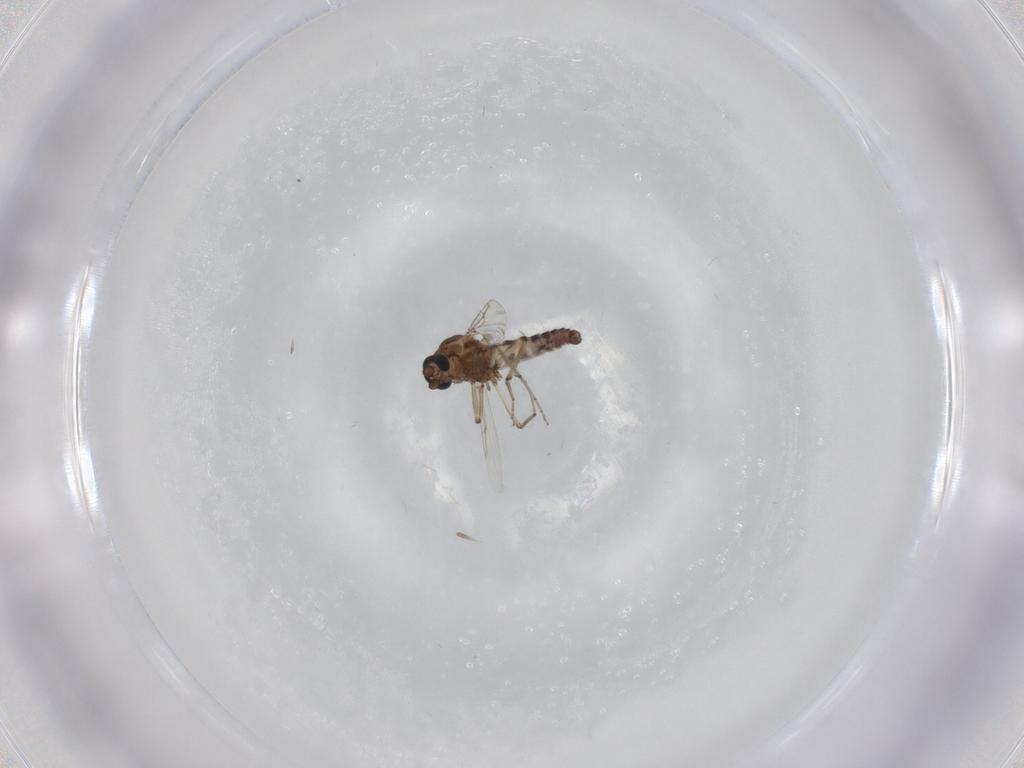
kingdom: Animalia
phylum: Arthropoda
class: Insecta
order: Diptera
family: Ceratopogonidae
